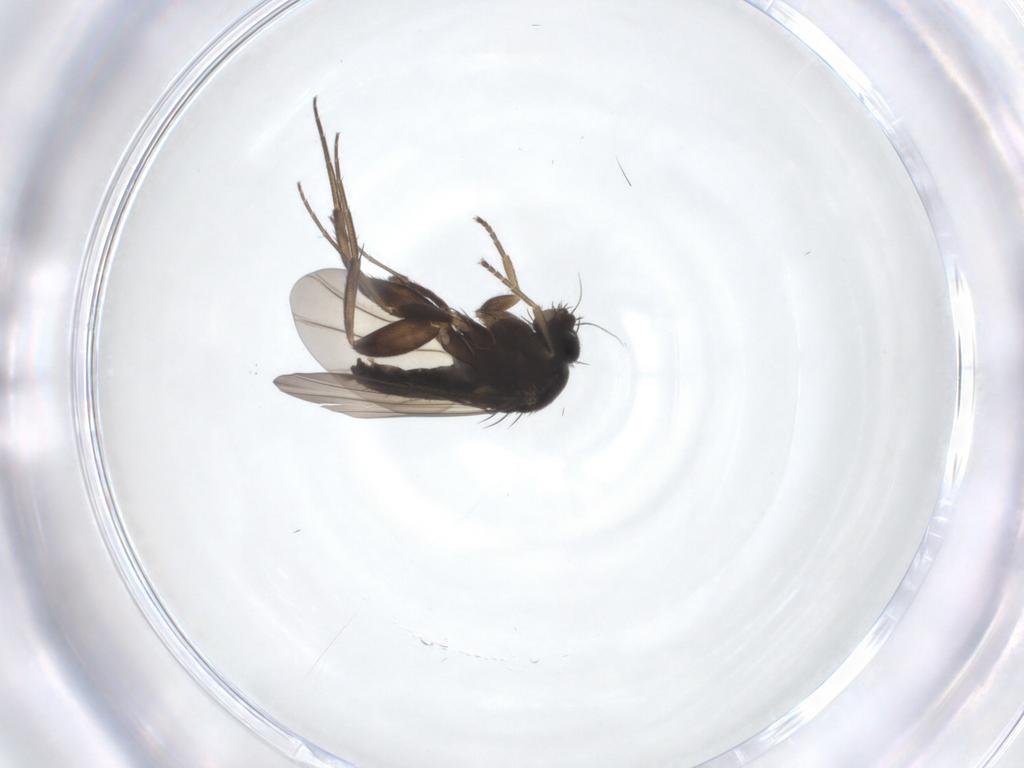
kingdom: Animalia
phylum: Arthropoda
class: Insecta
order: Diptera
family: Phoridae
